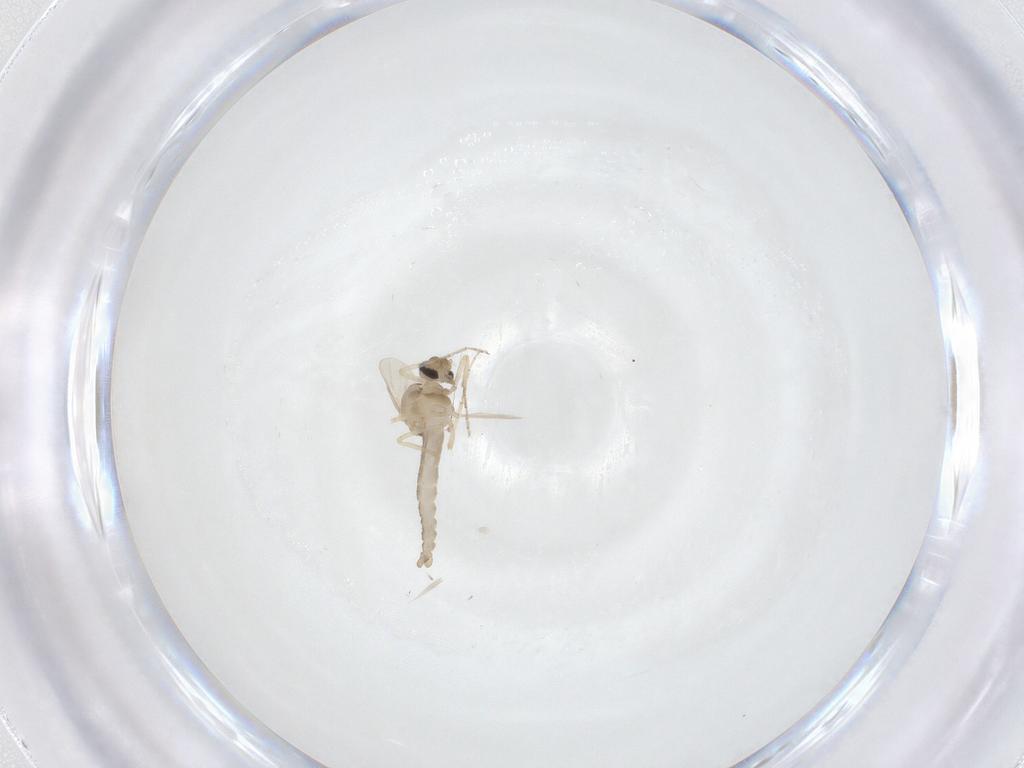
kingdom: Animalia
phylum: Arthropoda
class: Insecta
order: Diptera
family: Ceratopogonidae
